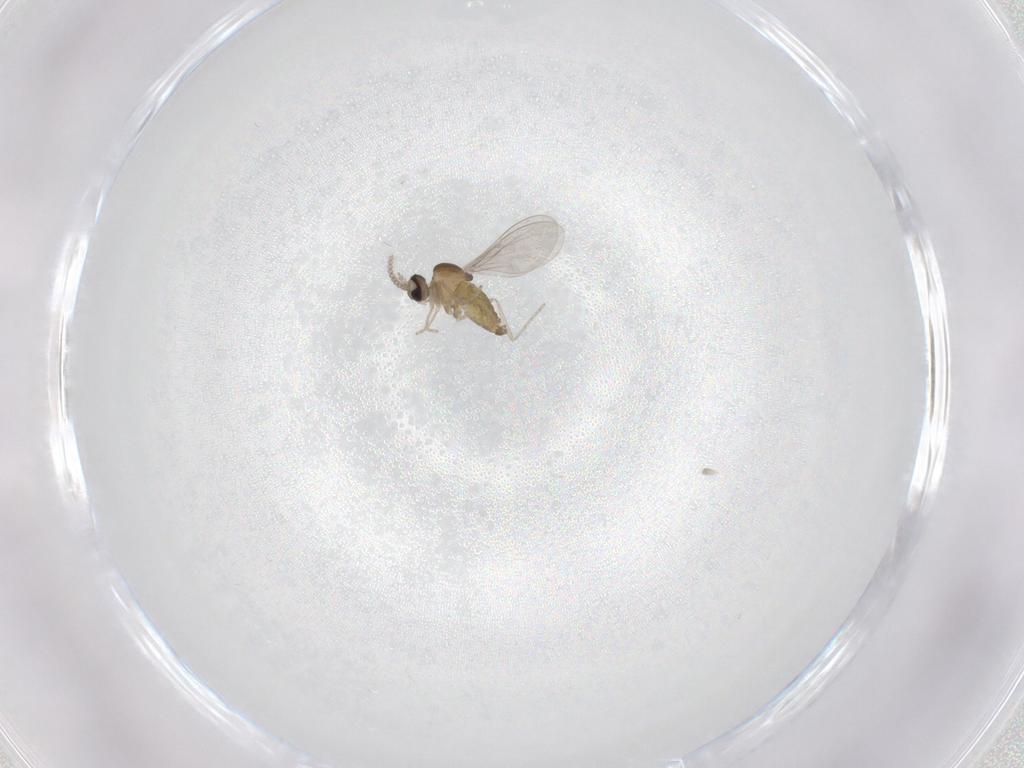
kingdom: Animalia
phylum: Arthropoda
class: Insecta
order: Diptera
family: Cecidomyiidae
